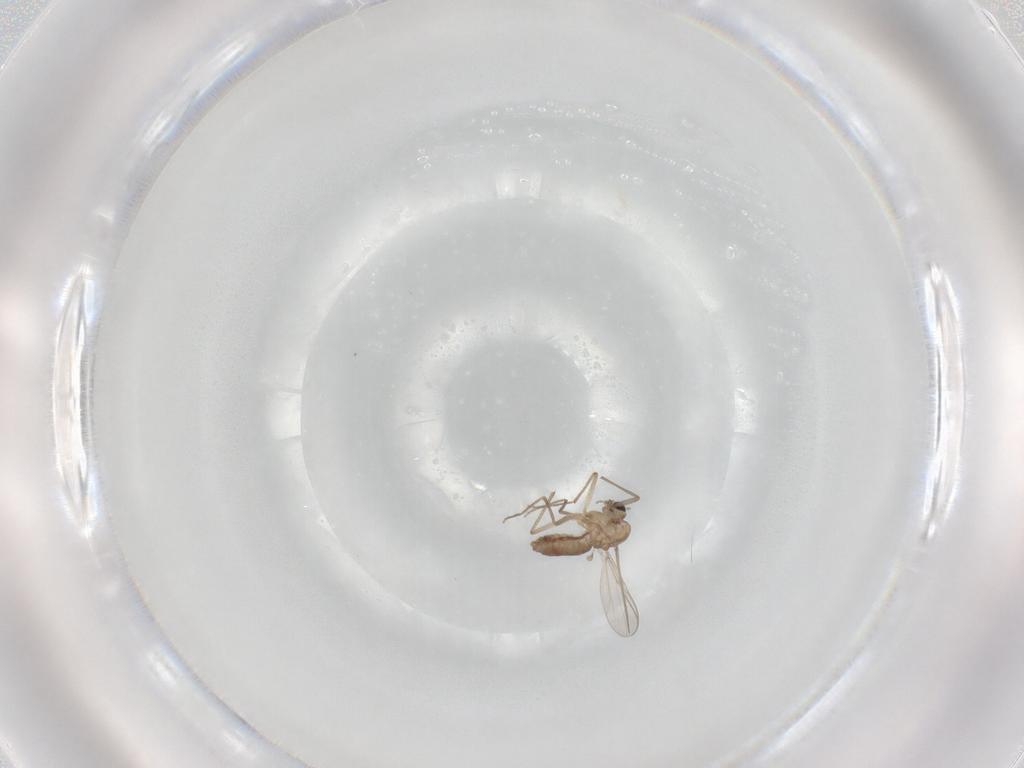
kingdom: Animalia
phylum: Arthropoda
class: Insecta
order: Diptera
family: Chironomidae
